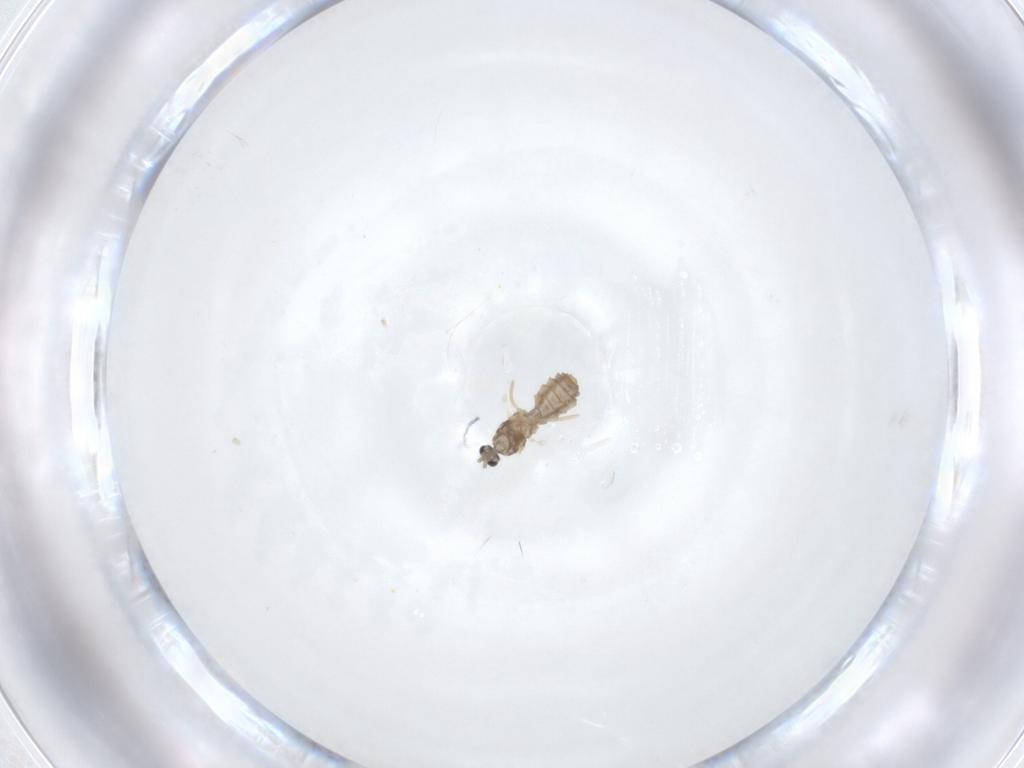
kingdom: Animalia
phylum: Arthropoda
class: Insecta
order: Diptera
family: Cecidomyiidae
